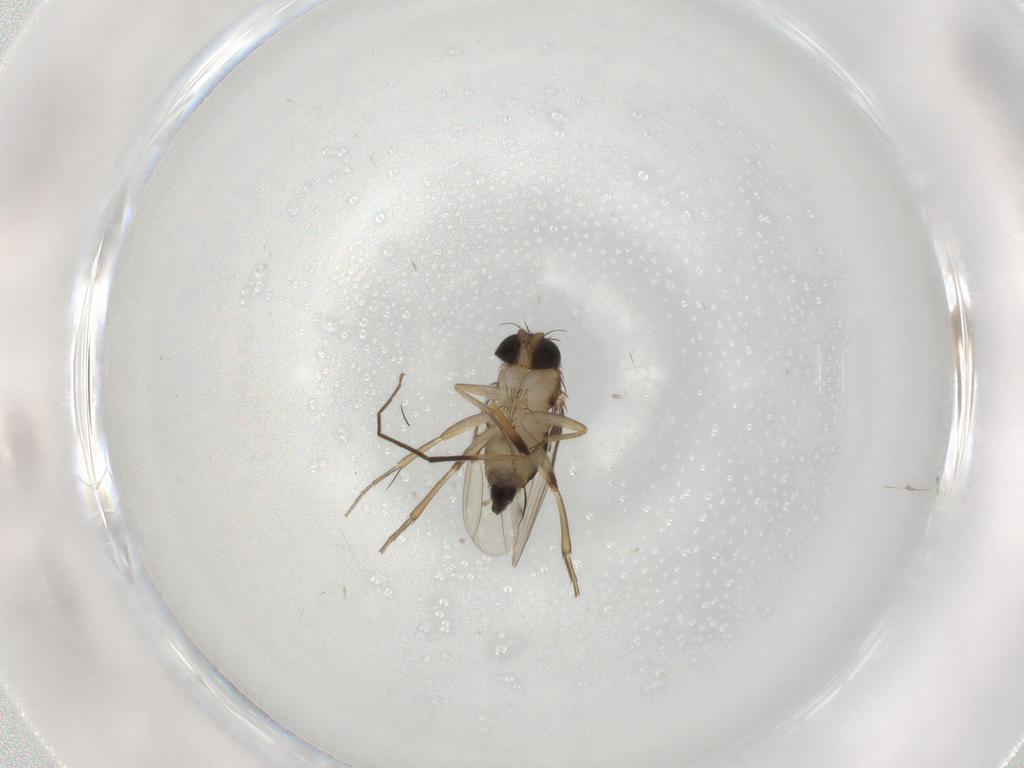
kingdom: Animalia
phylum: Arthropoda
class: Insecta
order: Diptera
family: Phoridae
